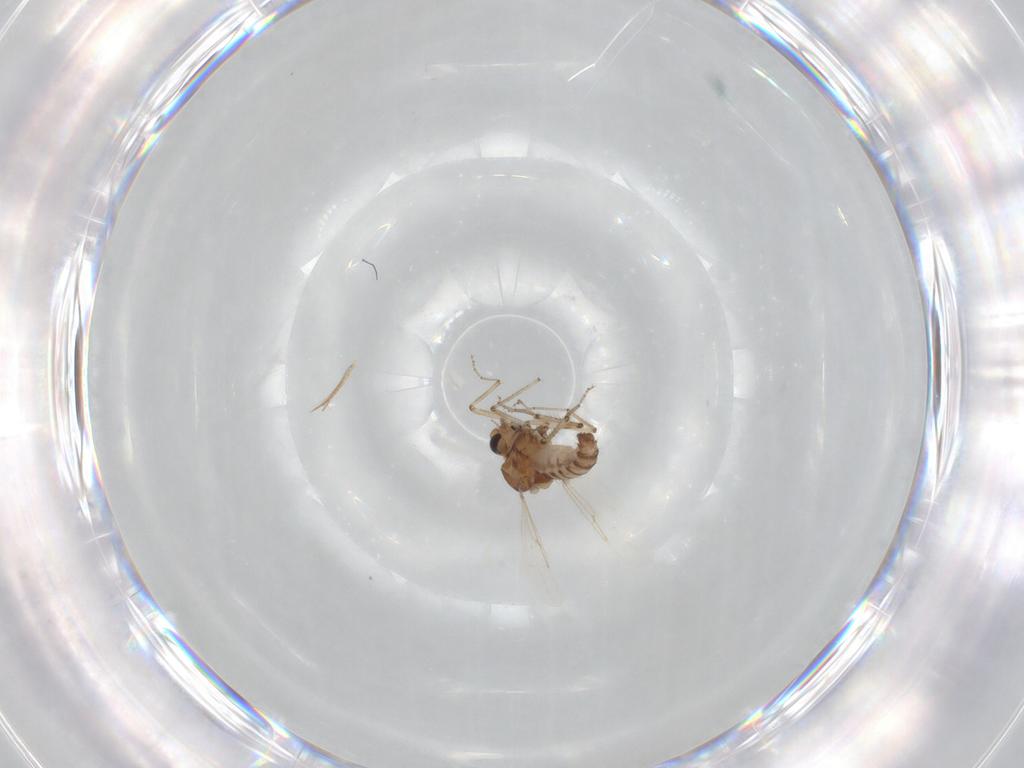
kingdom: Animalia
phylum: Arthropoda
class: Insecta
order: Diptera
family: Ceratopogonidae
